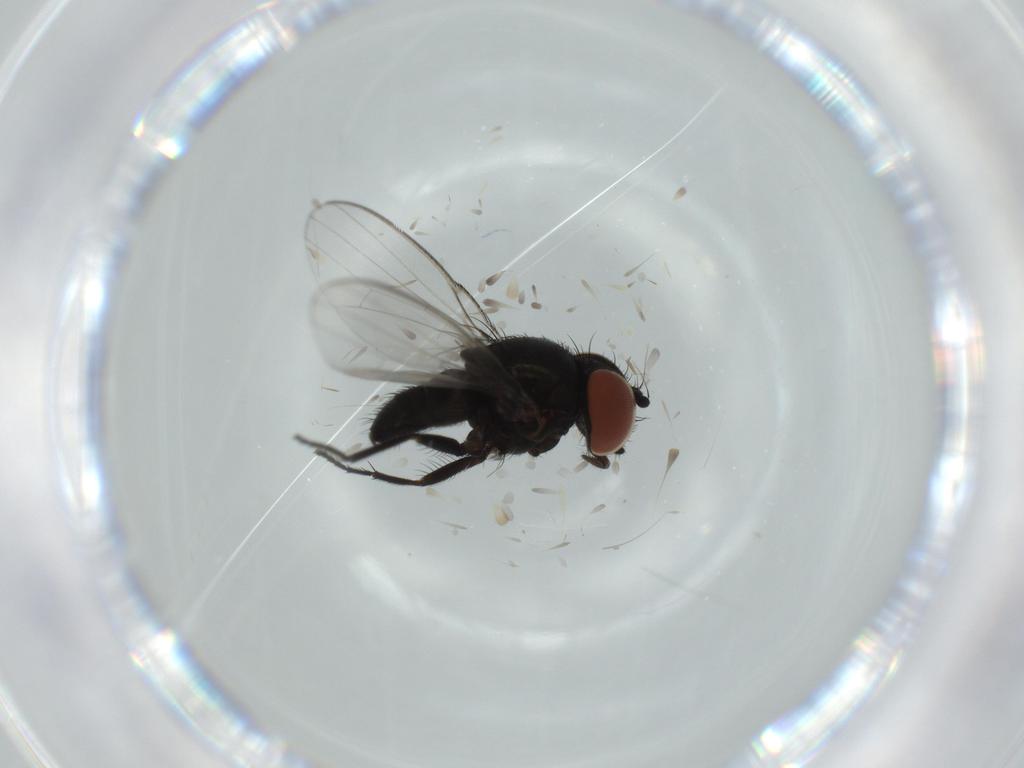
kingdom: Animalia
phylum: Arthropoda
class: Insecta
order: Diptera
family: Milichiidae
